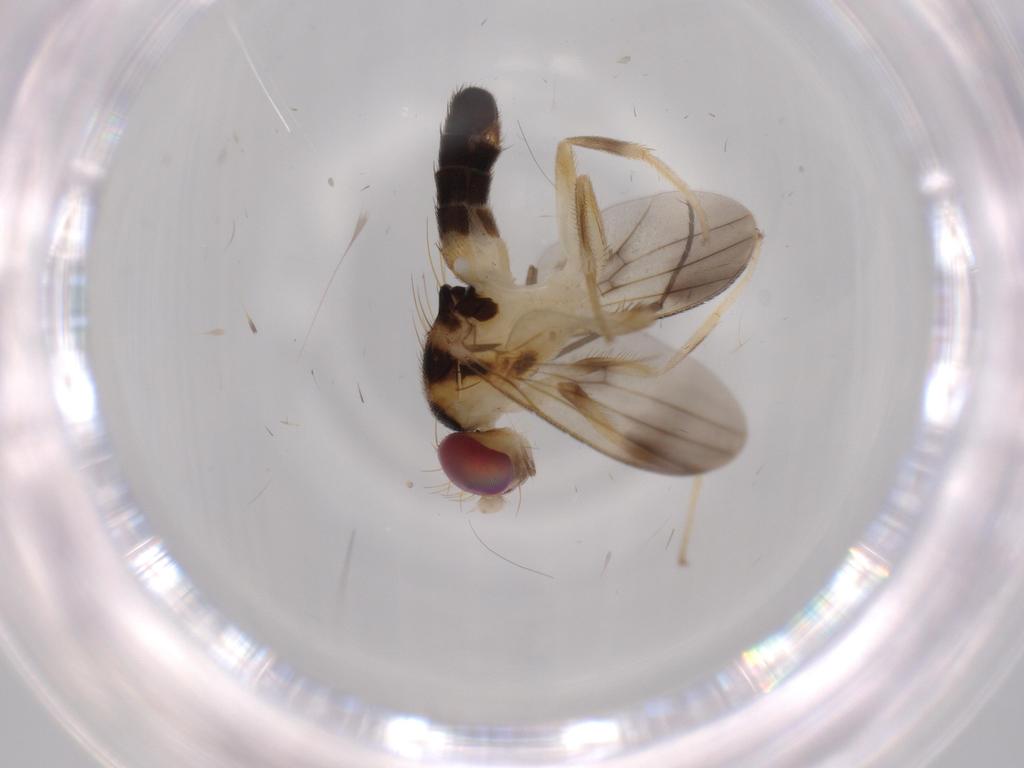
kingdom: Animalia
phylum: Arthropoda
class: Insecta
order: Diptera
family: Clusiidae
